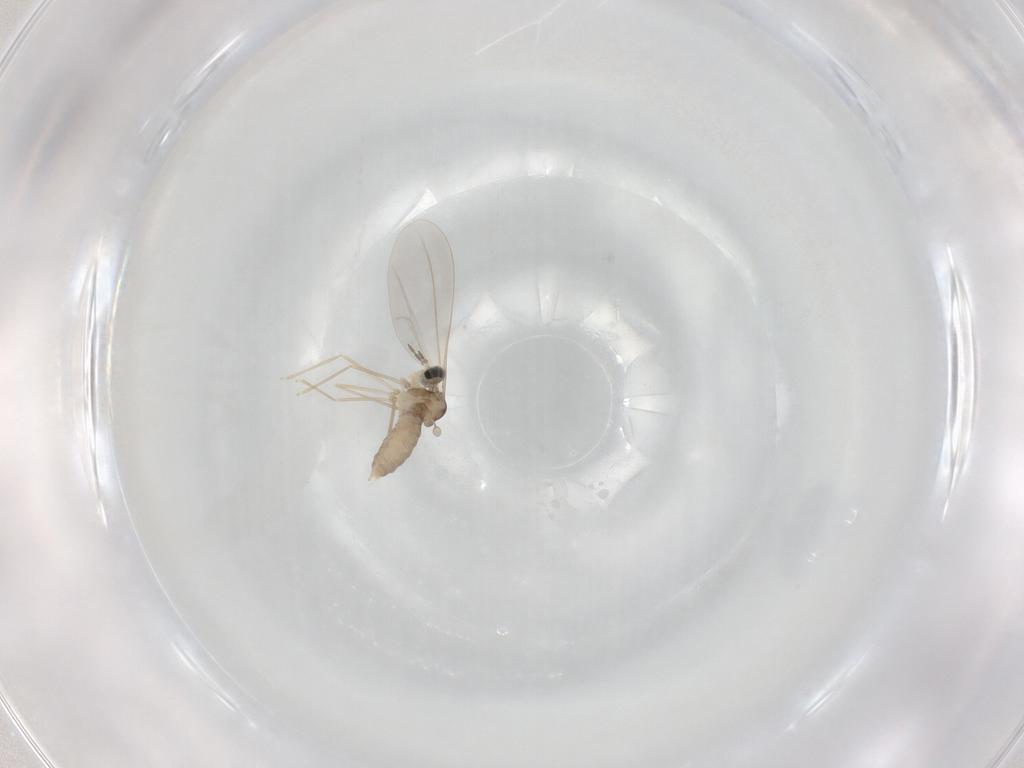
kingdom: Animalia
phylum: Arthropoda
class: Insecta
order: Diptera
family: Cecidomyiidae
